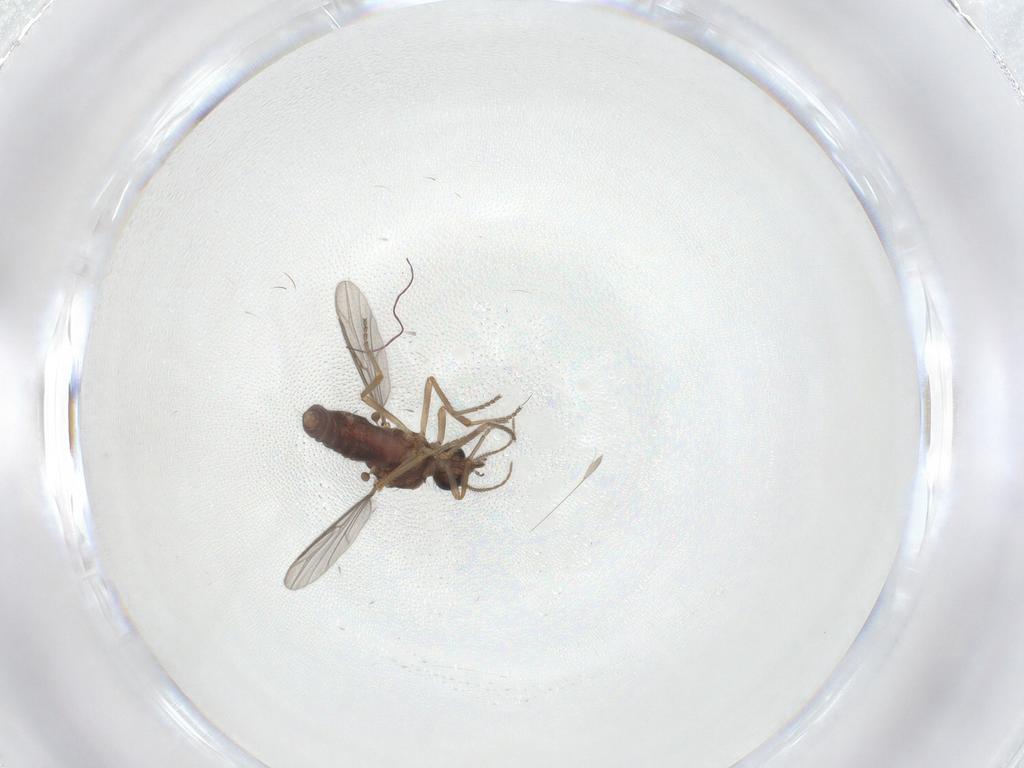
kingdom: Animalia
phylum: Arthropoda
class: Insecta
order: Diptera
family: Ceratopogonidae
